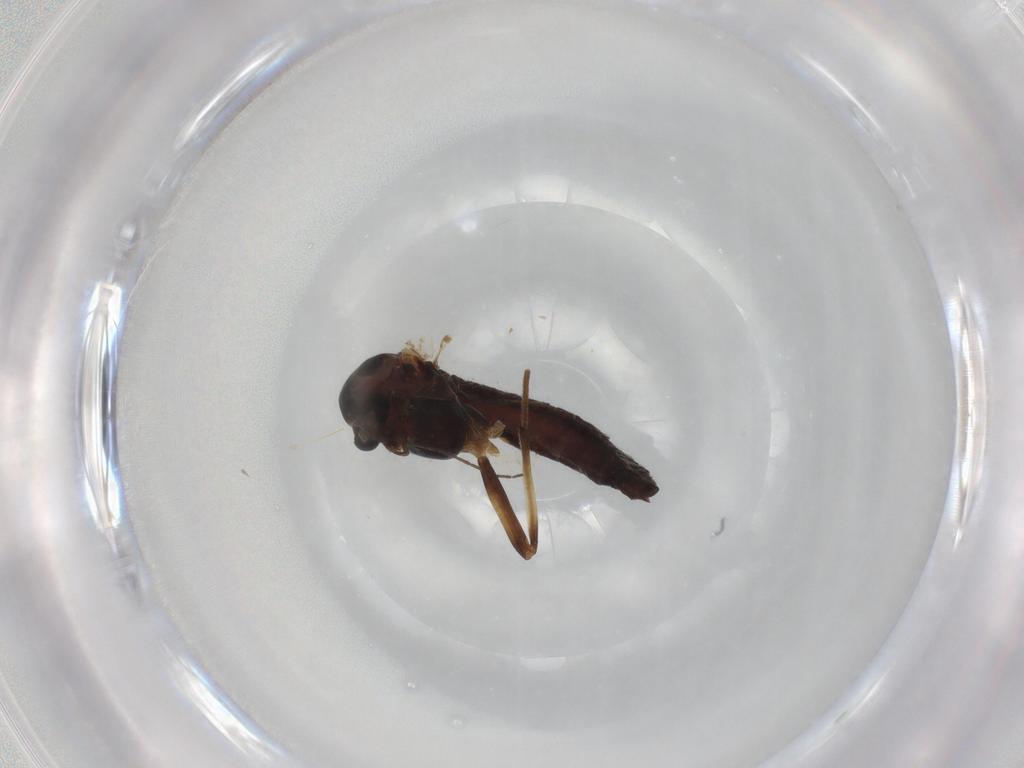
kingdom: Animalia
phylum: Arthropoda
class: Insecta
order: Diptera
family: Chironomidae
